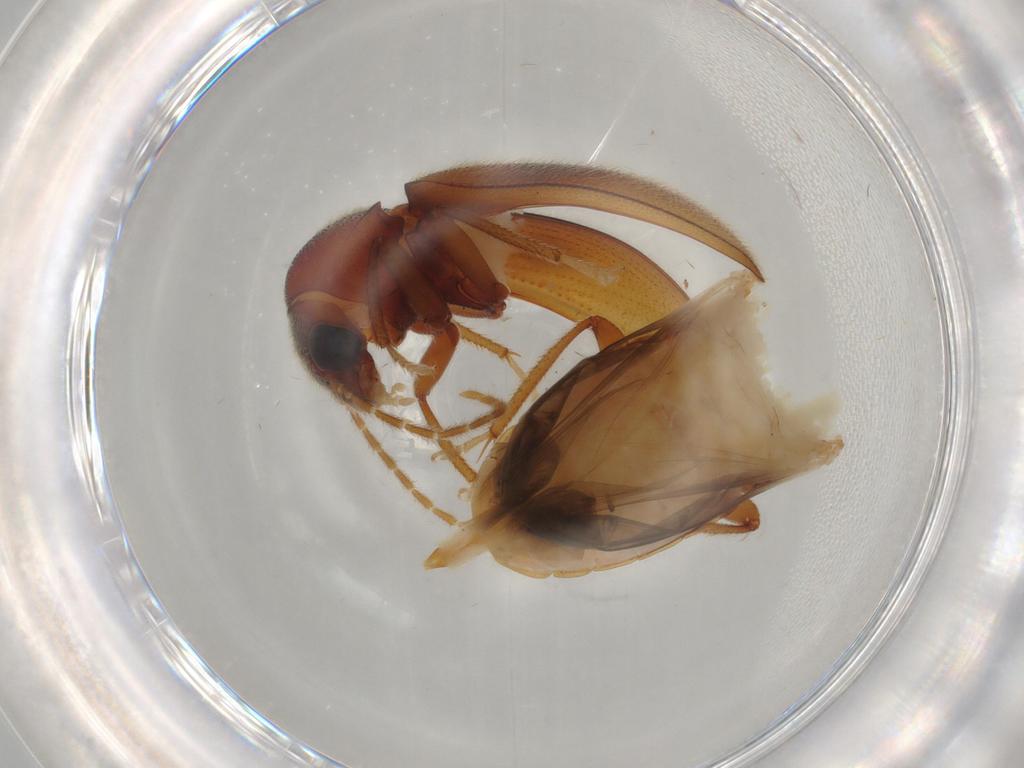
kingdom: Animalia
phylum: Arthropoda
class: Insecta
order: Coleoptera
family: Ptilodactylidae
